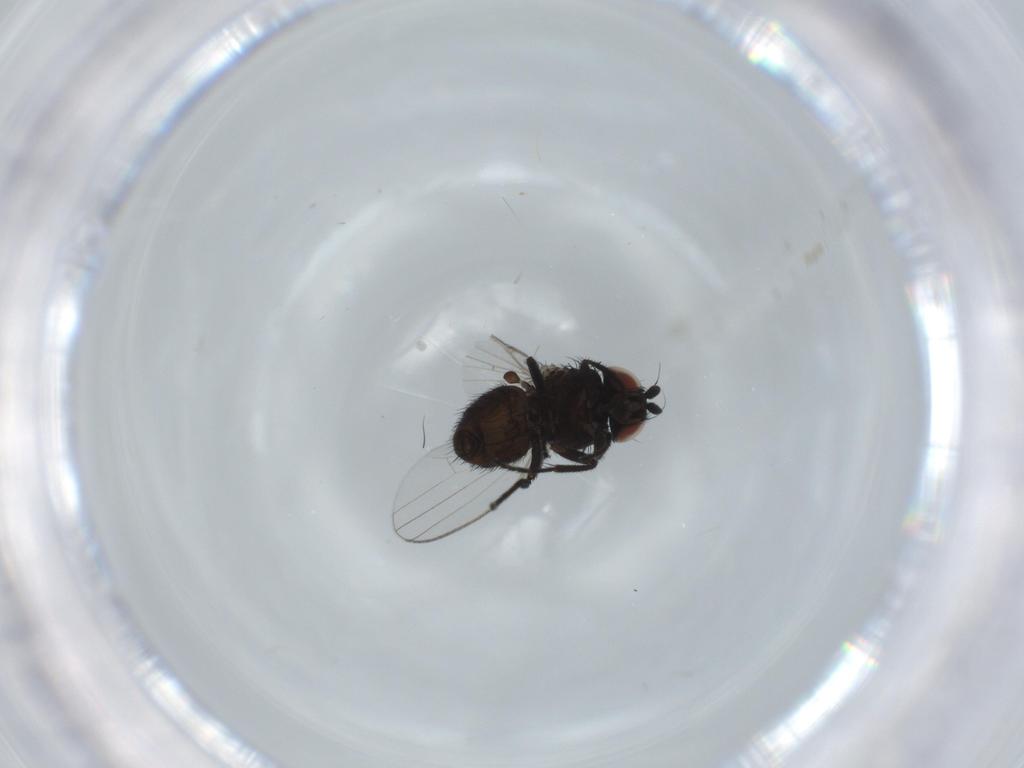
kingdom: Animalia
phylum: Arthropoda
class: Insecta
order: Diptera
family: Milichiidae
